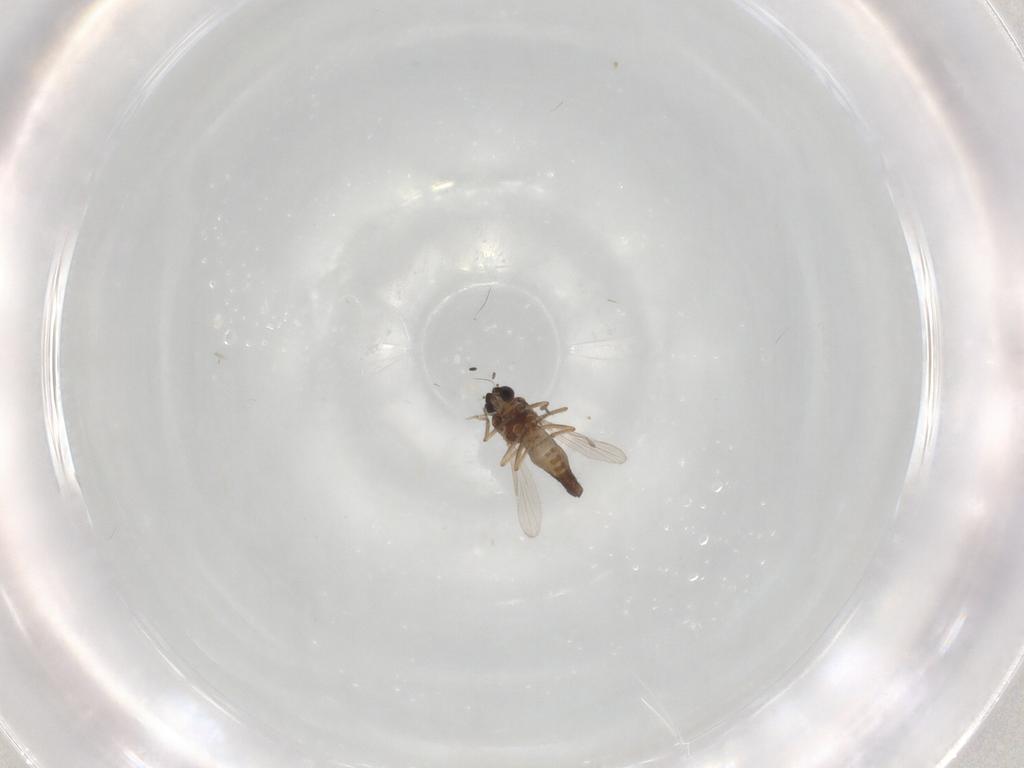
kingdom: Animalia
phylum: Arthropoda
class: Insecta
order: Diptera
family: Ceratopogonidae
